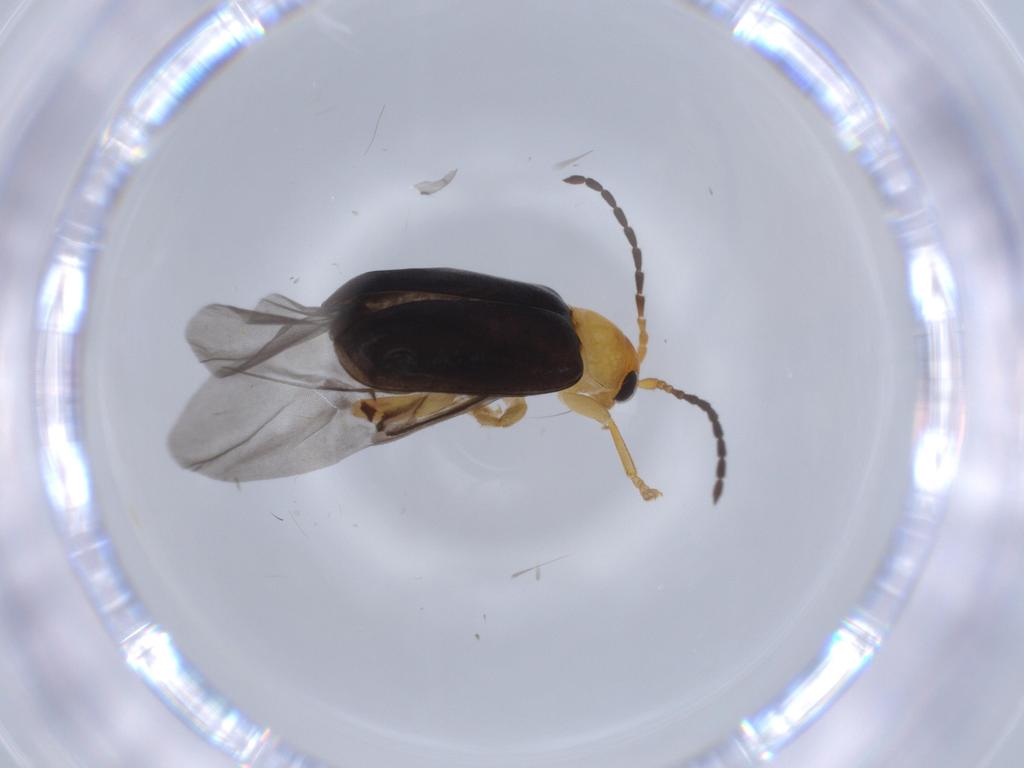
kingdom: Animalia
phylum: Arthropoda
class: Insecta
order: Coleoptera
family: Chrysomelidae
